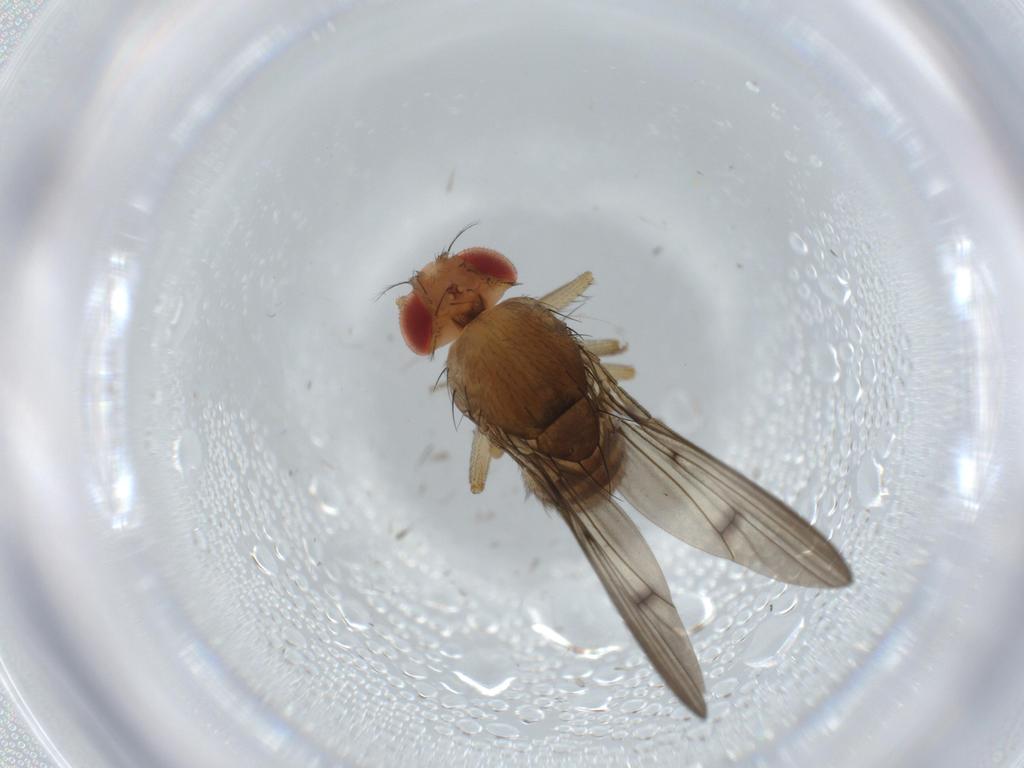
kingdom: Animalia
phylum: Arthropoda
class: Insecta
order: Diptera
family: Drosophilidae
